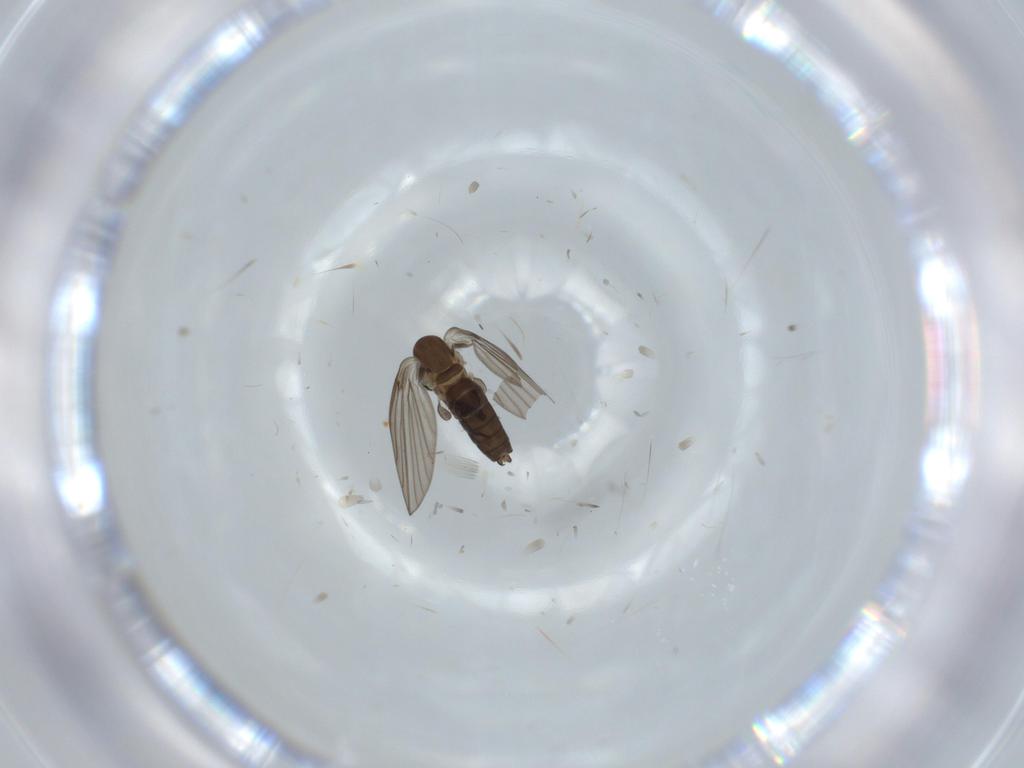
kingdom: Animalia
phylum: Arthropoda
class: Insecta
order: Diptera
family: Psychodidae
